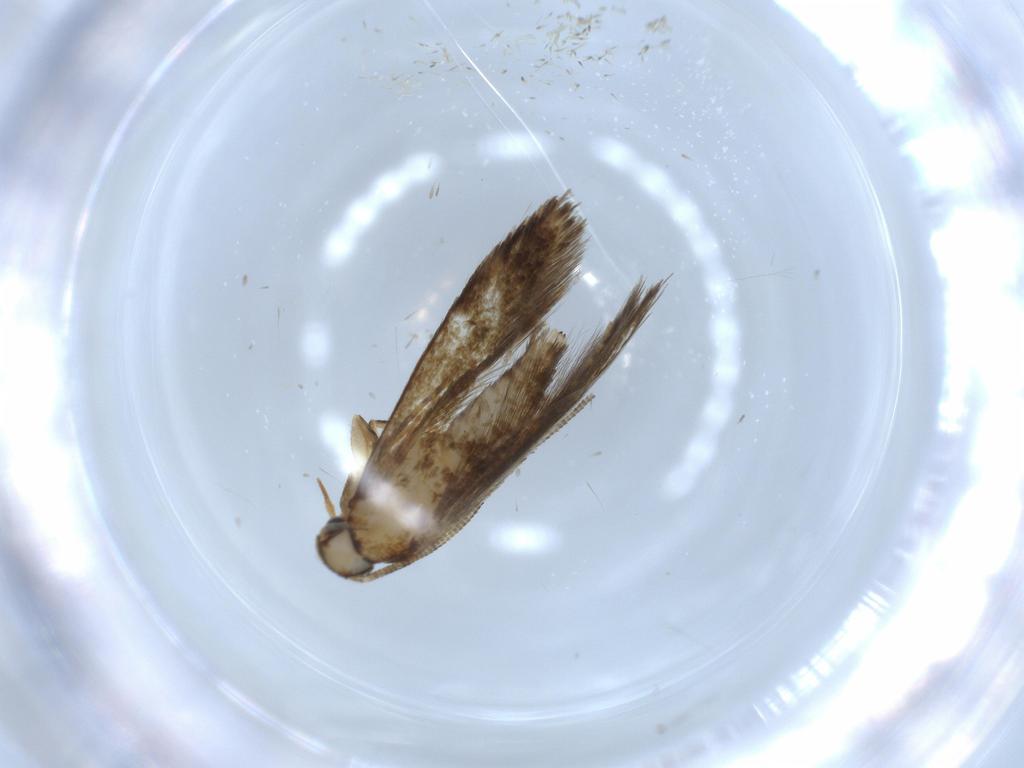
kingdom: Animalia
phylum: Arthropoda
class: Insecta
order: Lepidoptera
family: Tineidae
